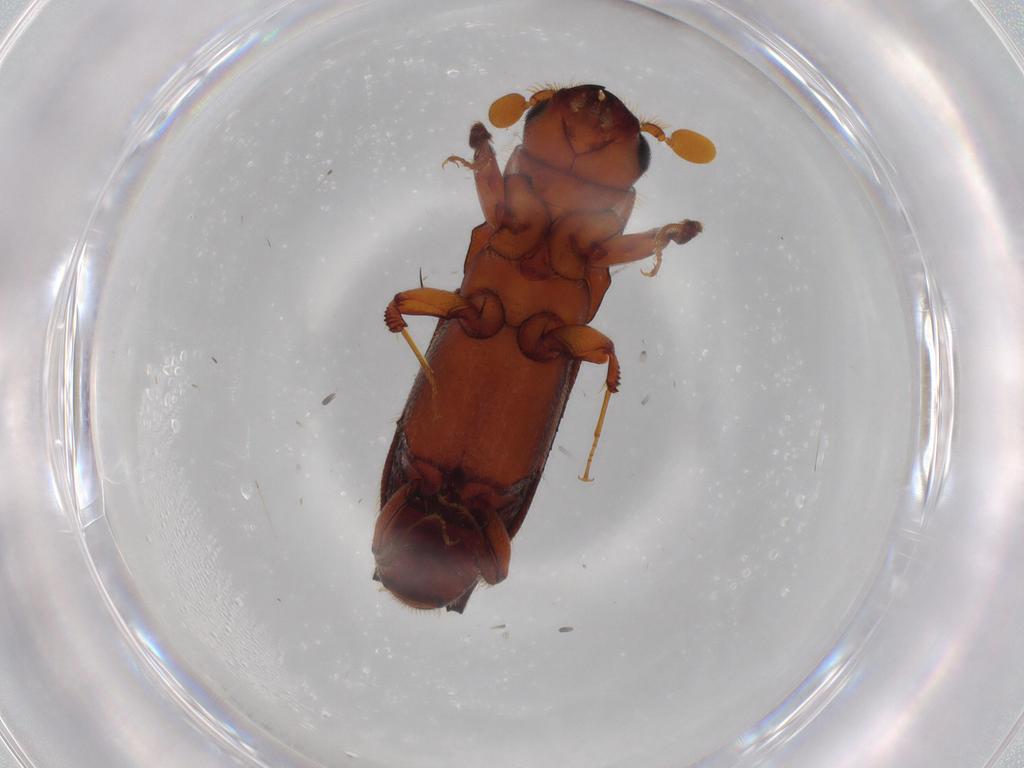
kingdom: Animalia
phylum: Arthropoda
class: Insecta
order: Coleoptera
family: Curculionidae
